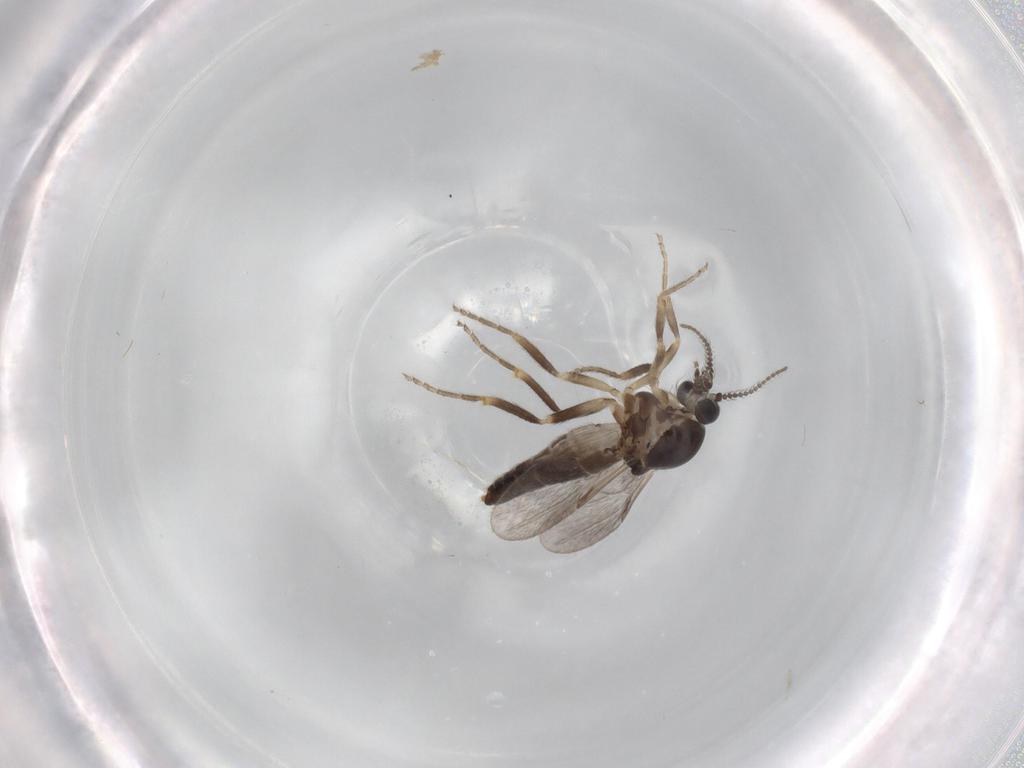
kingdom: Animalia
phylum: Arthropoda
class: Insecta
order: Diptera
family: Ceratopogonidae
